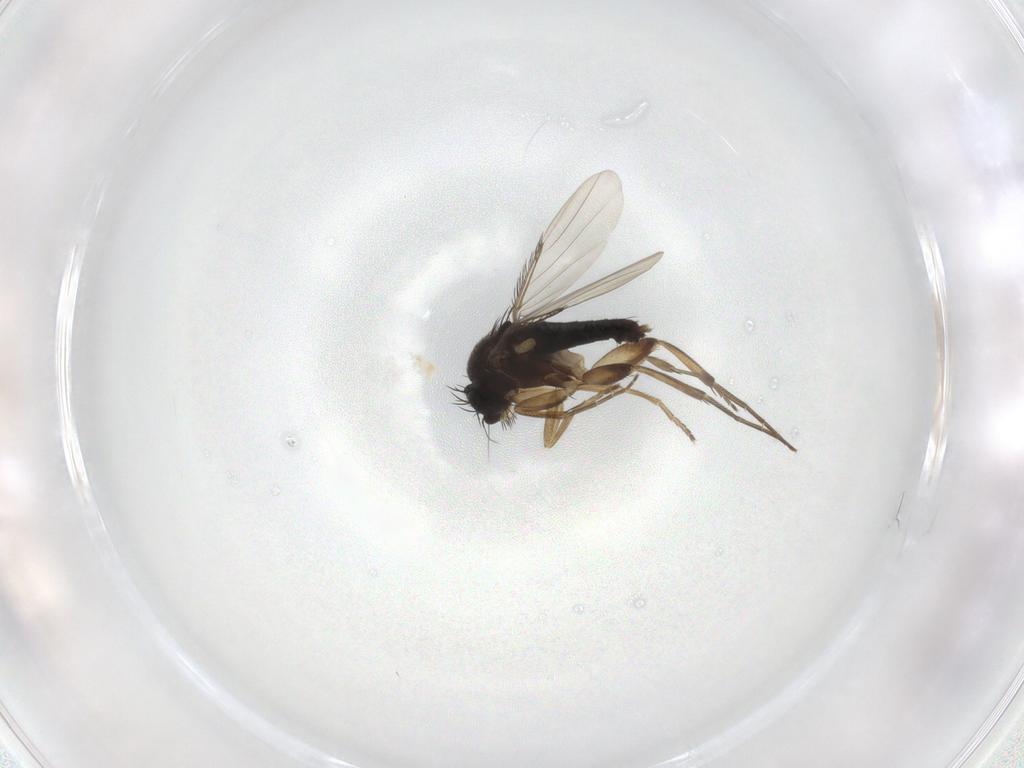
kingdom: Animalia
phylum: Arthropoda
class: Insecta
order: Diptera
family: Phoridae
